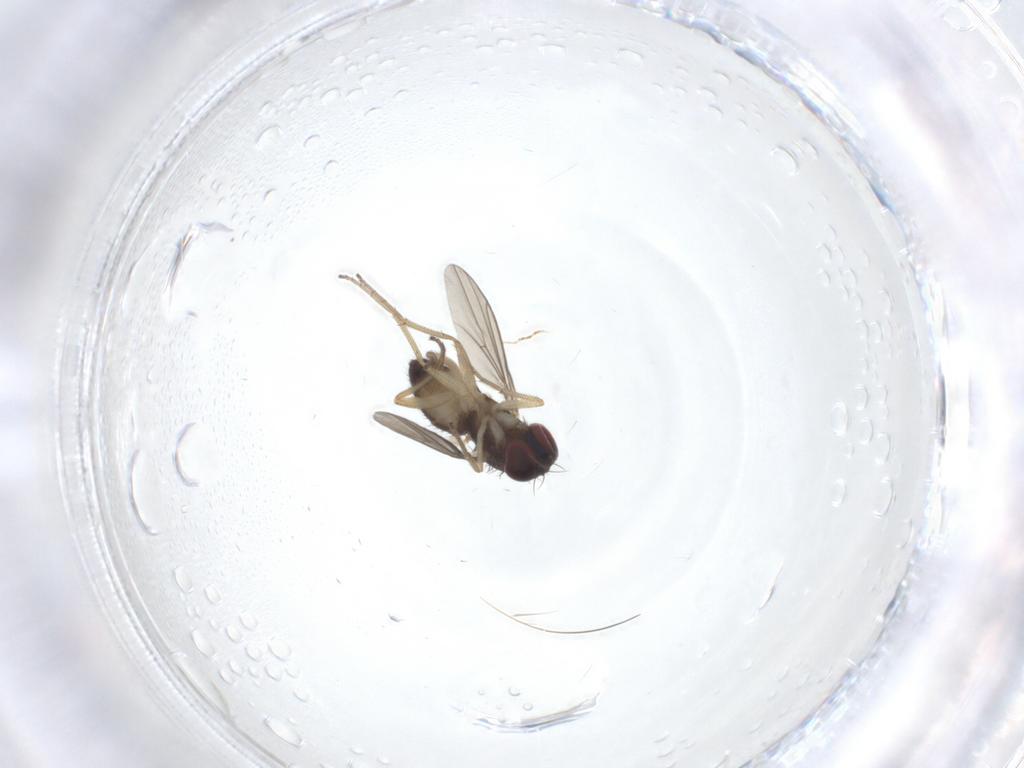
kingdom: Animalia
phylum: Arthropoda
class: Insecta
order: Diptera
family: Dolichopodidae
